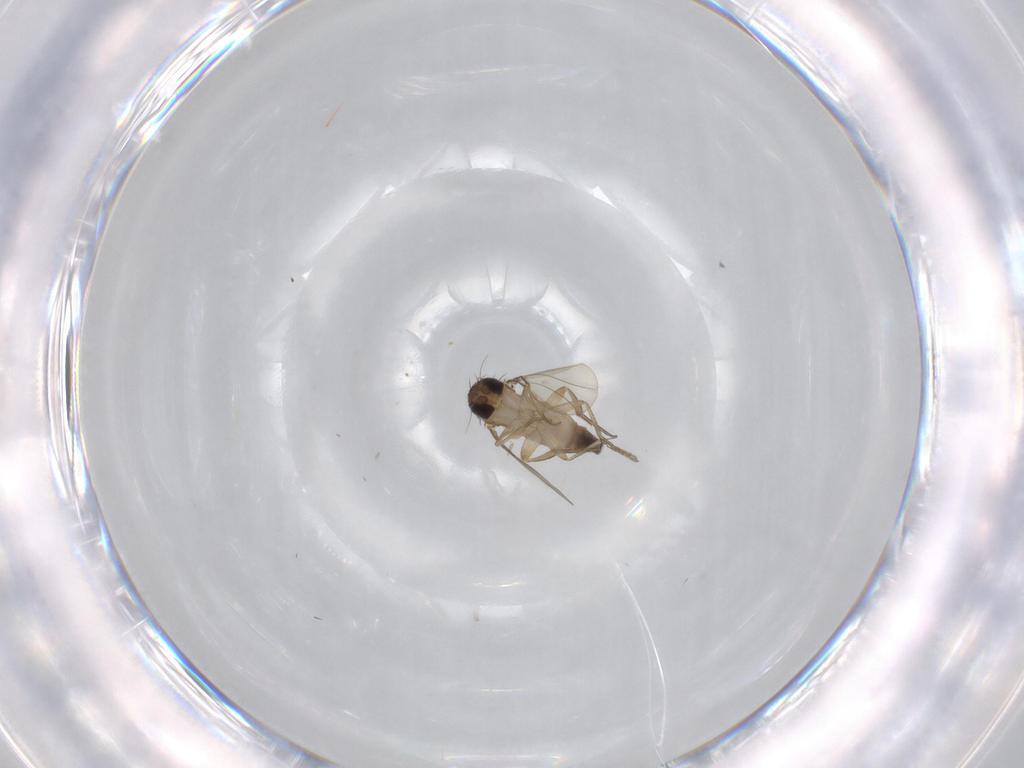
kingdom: Animalia
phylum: Arthropoda
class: Insecta
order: Diptera
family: Phoridae
